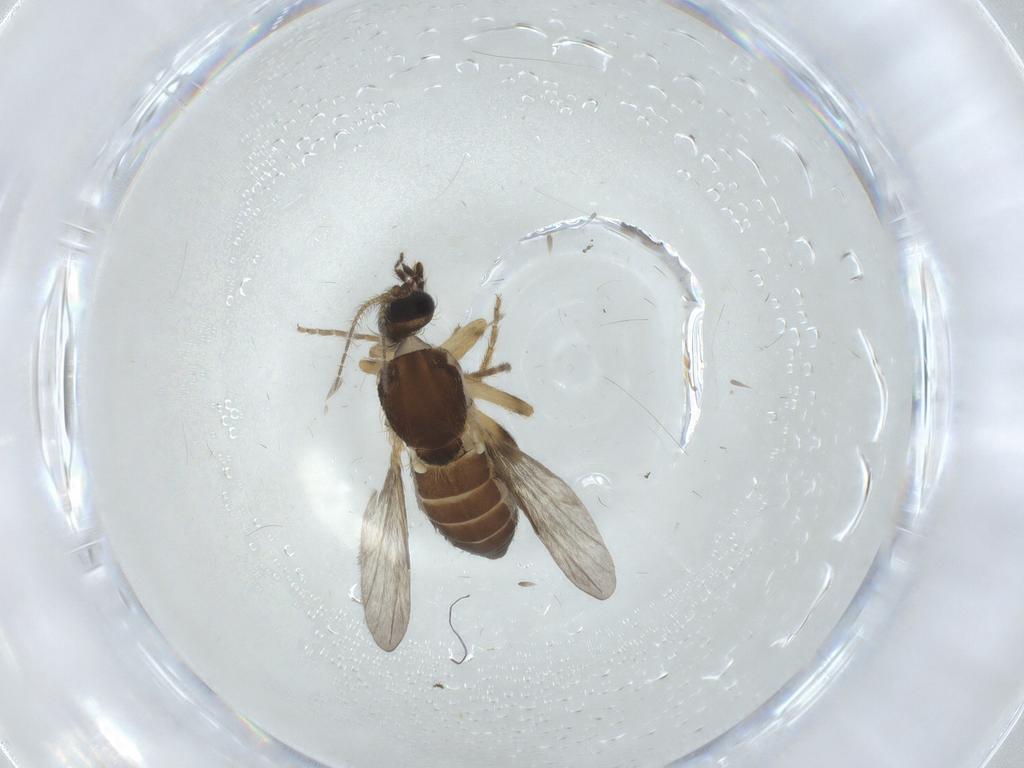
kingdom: Animalia
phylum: Arthropoda
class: Insecta
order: Diptera
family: Ceratopogonidae
